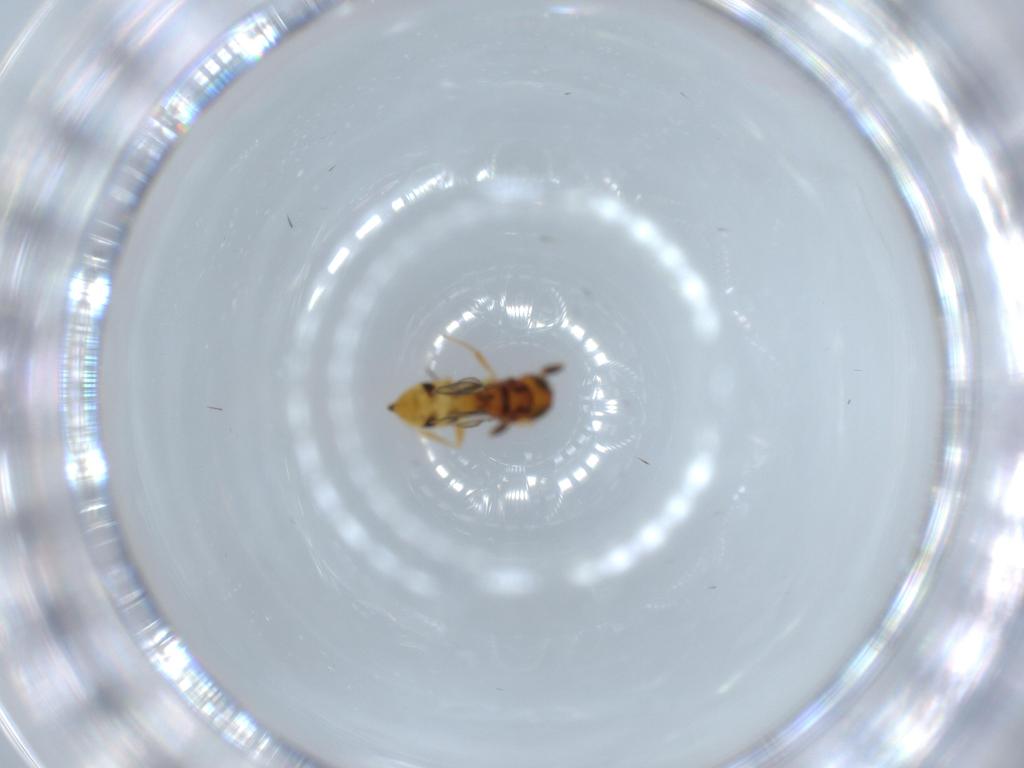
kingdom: Animalia
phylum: Arthropoda
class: Insecta
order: Hymenoptera
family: Scelionidae
